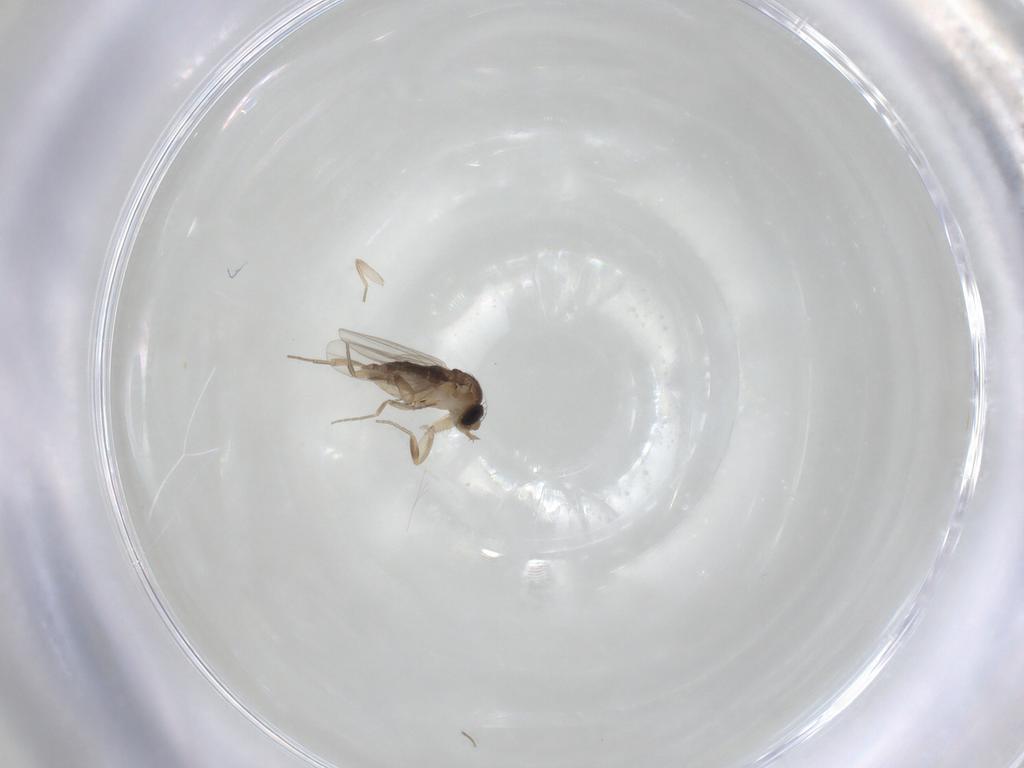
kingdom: Animalia
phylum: Arthropoda
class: Insecta
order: Diptera
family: Phoridae
